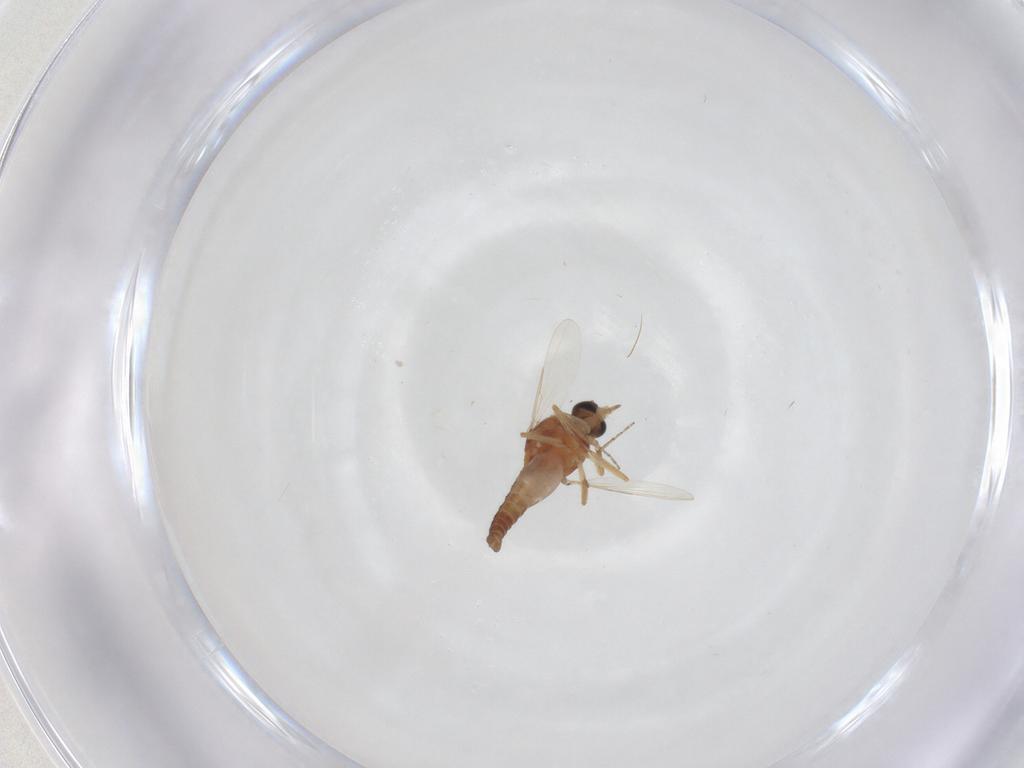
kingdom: Animalia
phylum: Arthropoda
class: Insecta
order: Diptera
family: Ceratopogonidae
